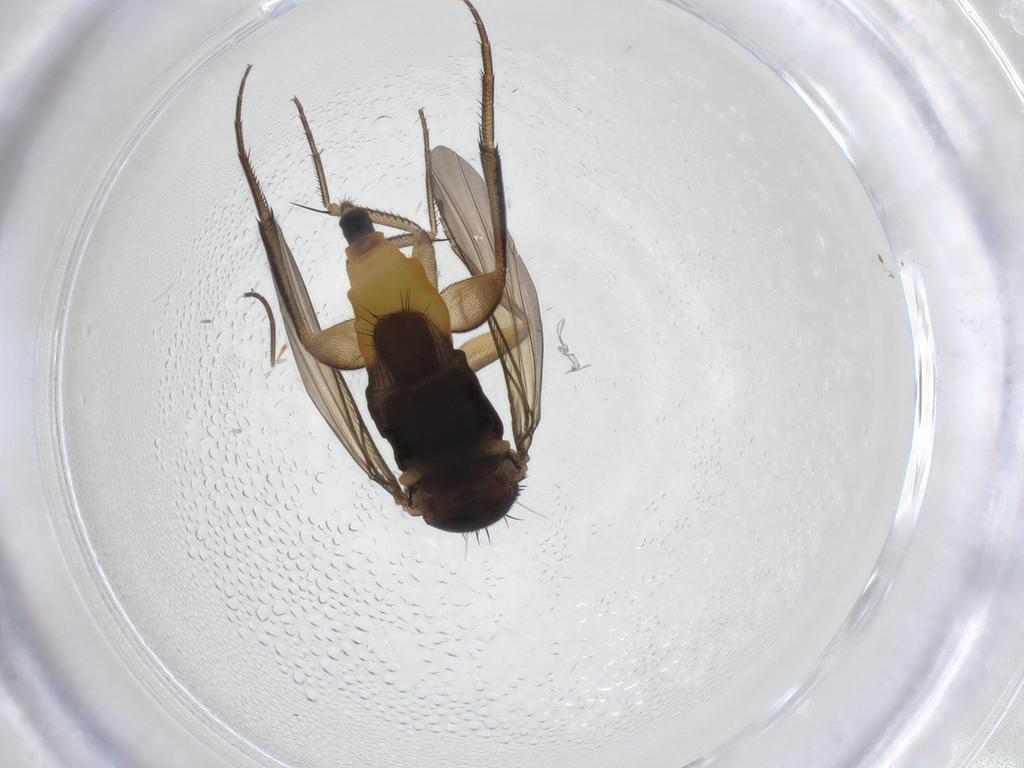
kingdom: Animalia
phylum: Arthropoda
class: Insecta
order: Diptera
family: Phoridae
